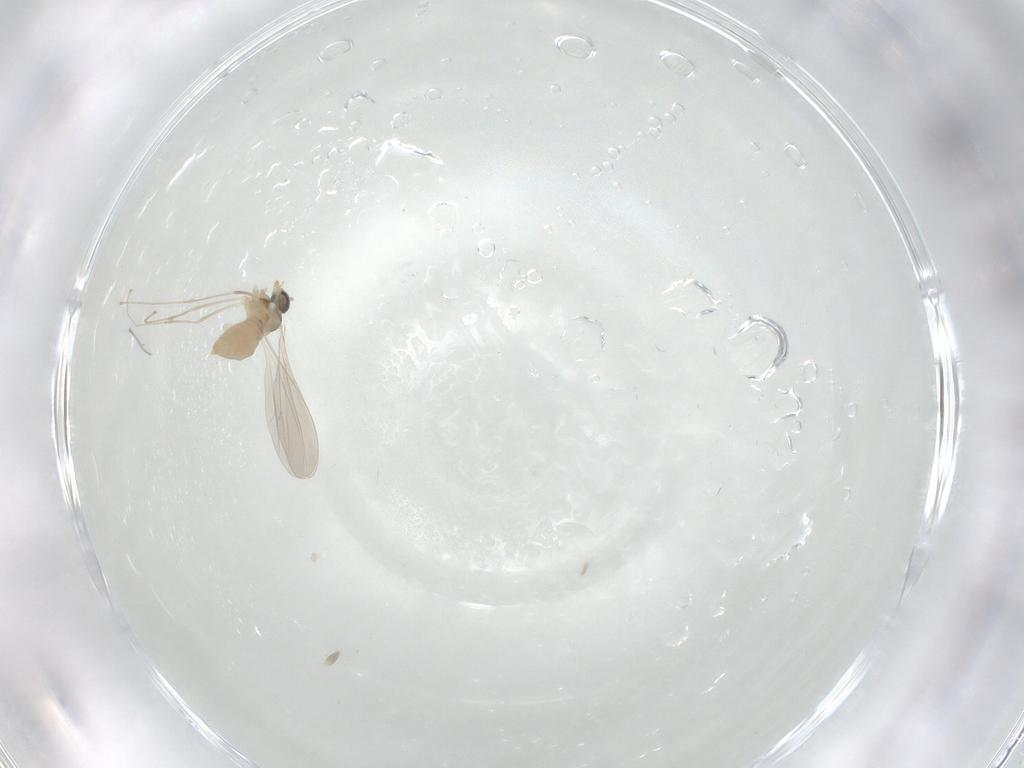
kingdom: Animalia
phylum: Arthropoda
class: Insecta
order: Diptera
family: Cecidomyiidae
